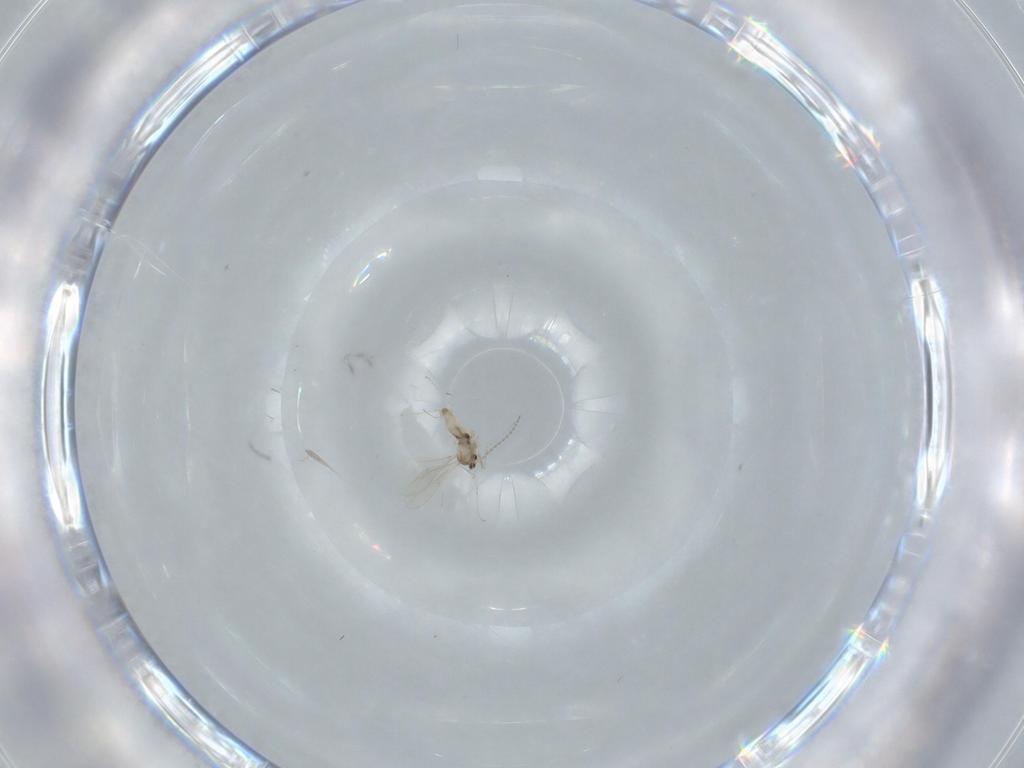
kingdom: Animalia
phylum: Arthropoda
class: Insecta
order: Diptera
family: Cecidomyiidae
